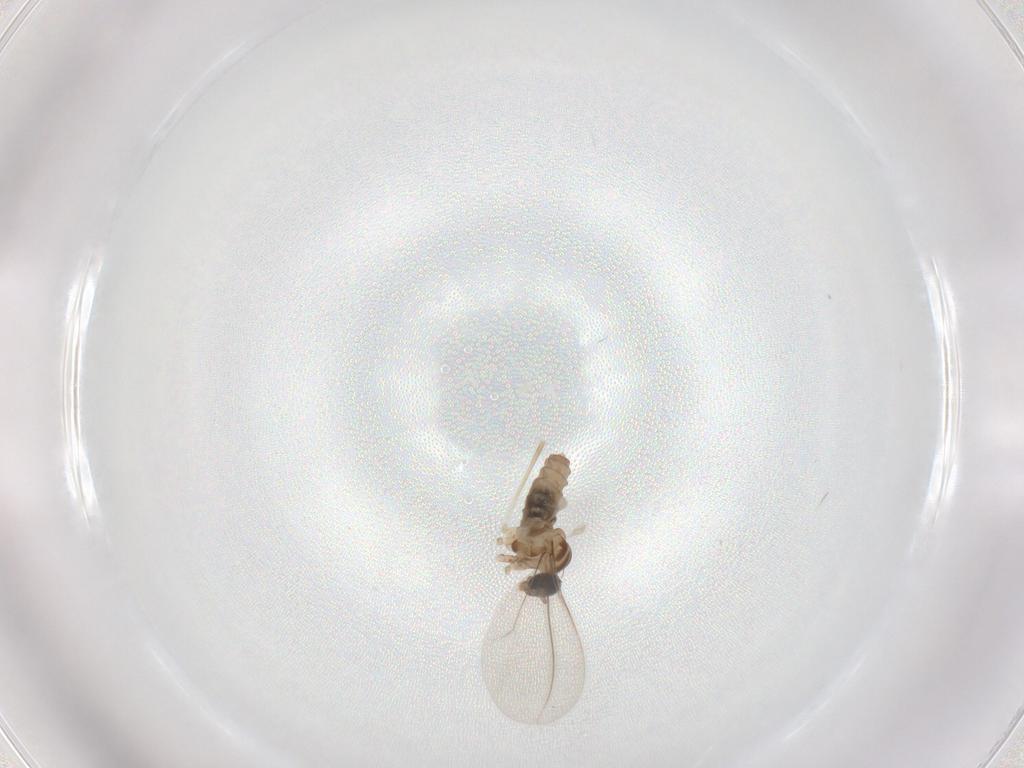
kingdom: Animalia
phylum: Arthropoda
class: Insecta
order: Diptera
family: Cecidomyiidae
